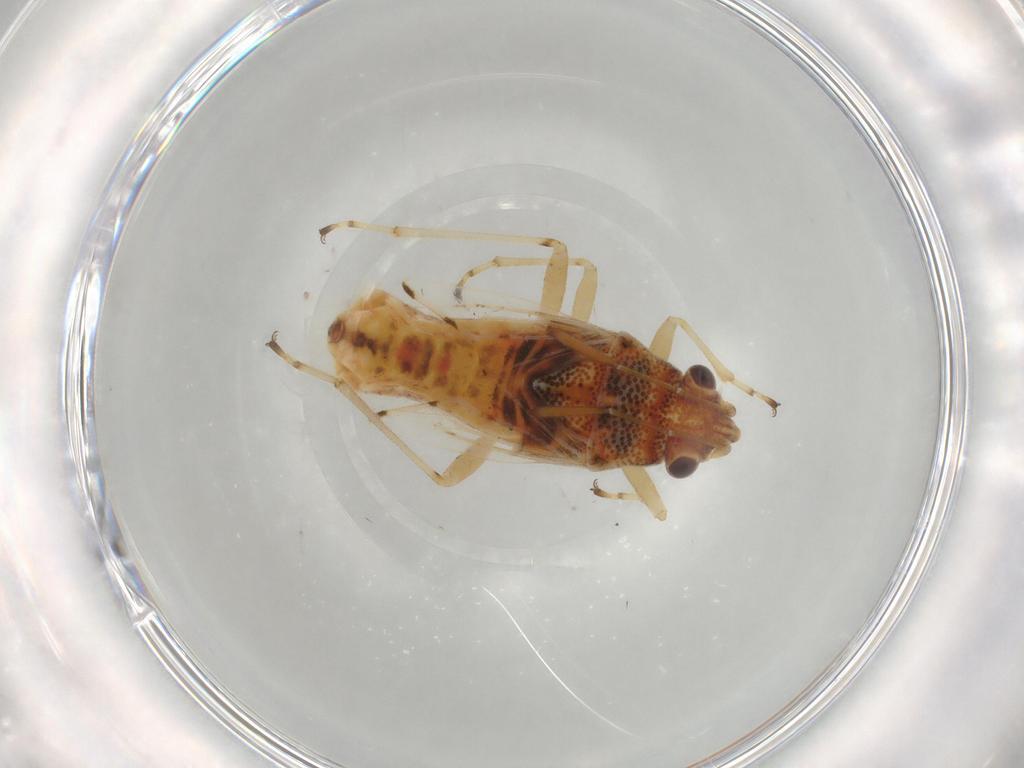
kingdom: Animalia
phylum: Arthropoda
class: Insecta
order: Hemiptera
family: Lygaeidae
